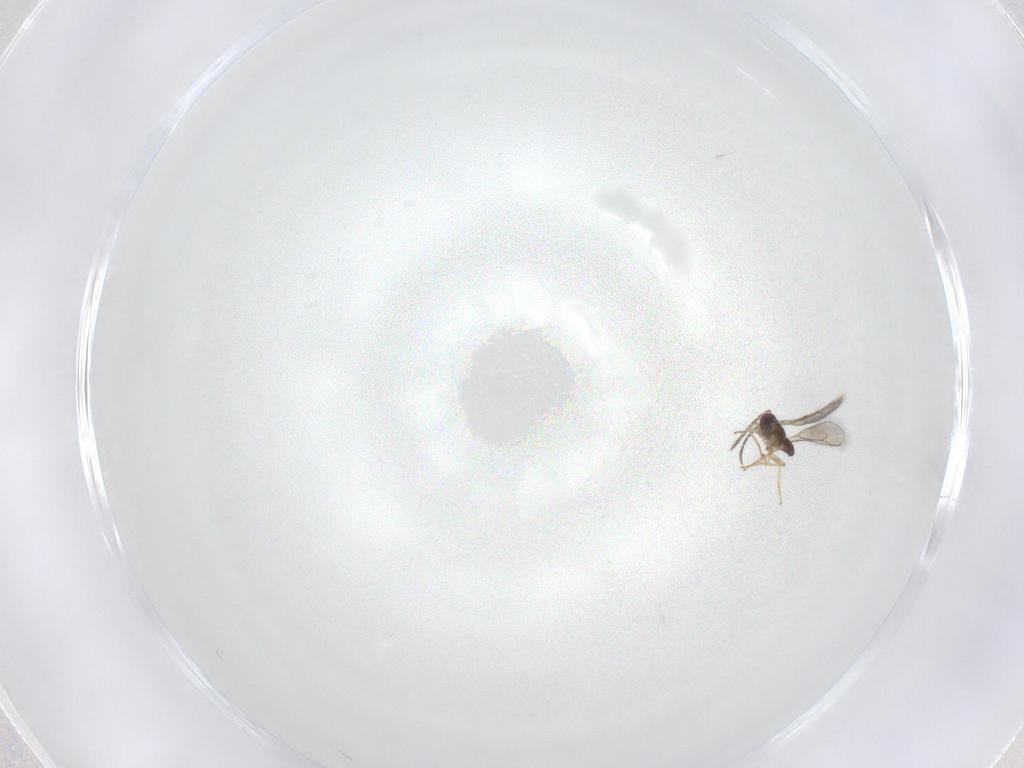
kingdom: Animalia
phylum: Arthropoda
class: Insecta
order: Hymenoptera
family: Eulophidae
